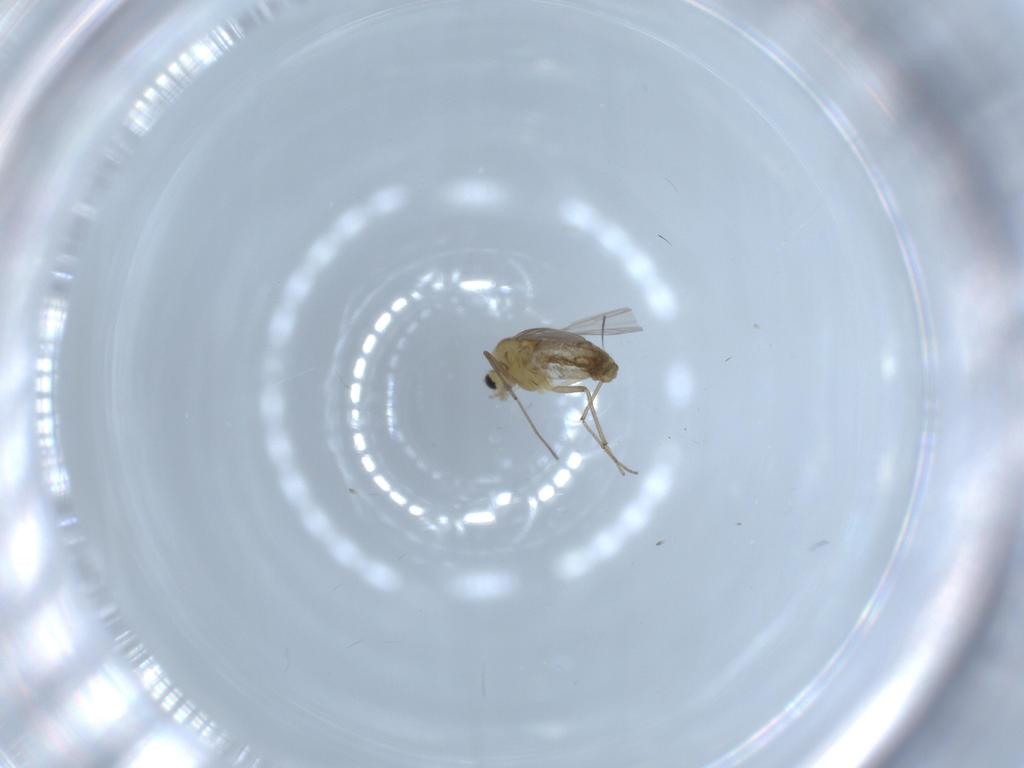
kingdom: Animalia
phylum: Arthropoda
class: Insecta
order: Diptera
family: Chironomidae
